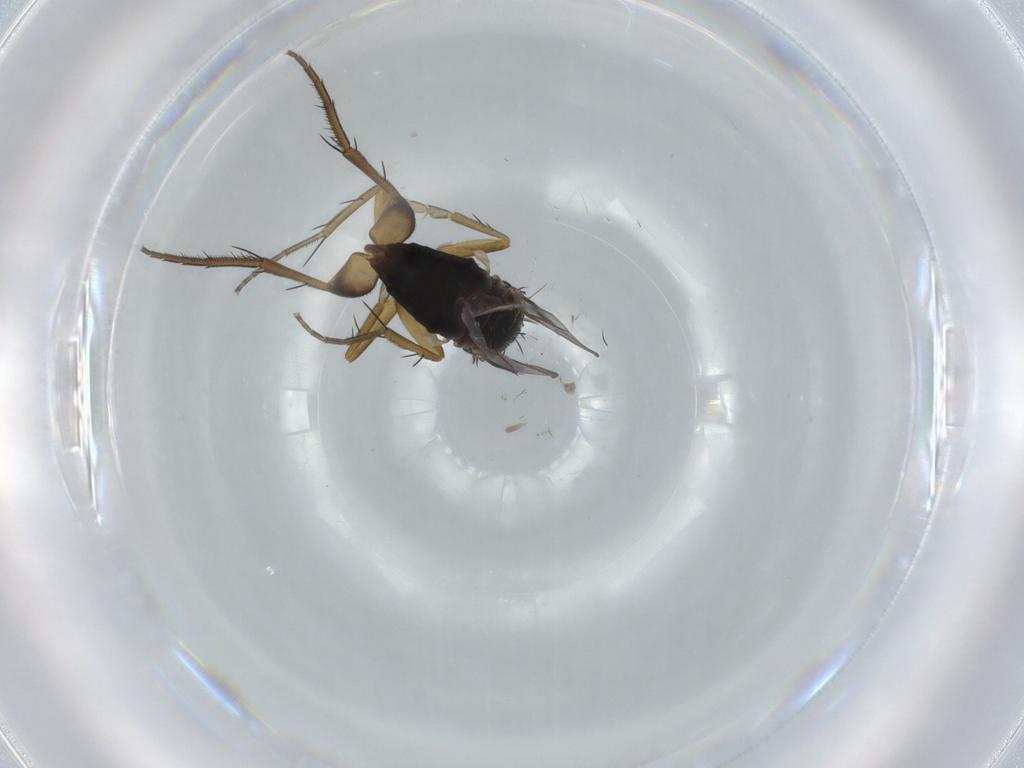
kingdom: Animalia
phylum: Arthropoda
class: Insecta
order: Diptera
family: Phoridae
